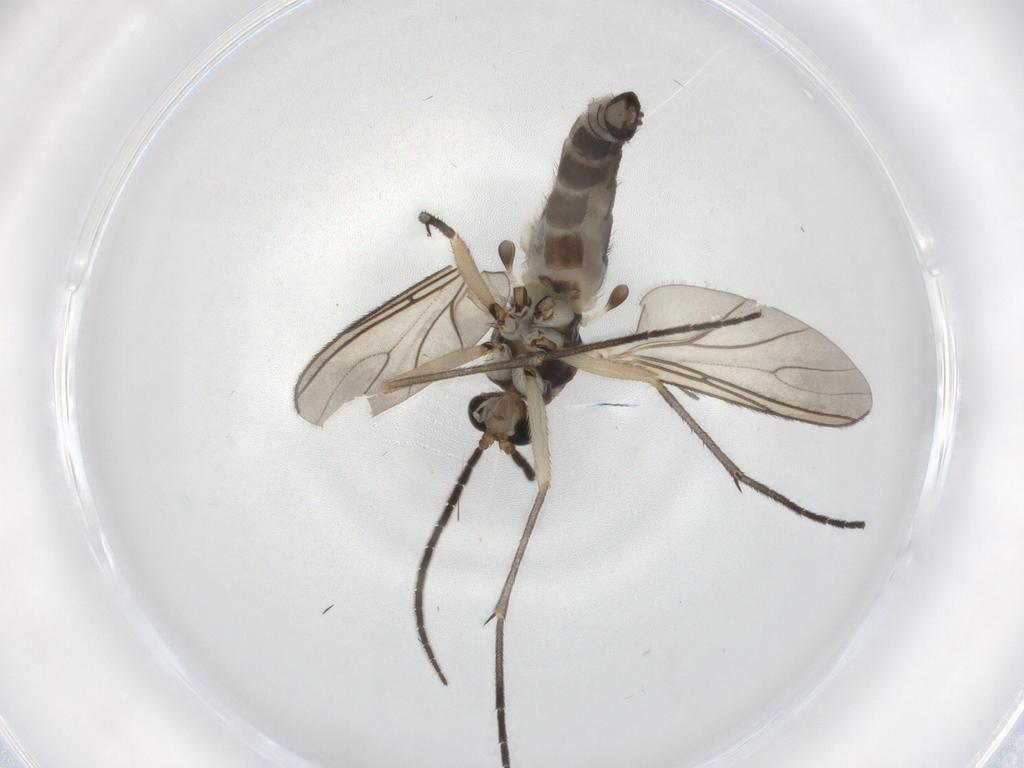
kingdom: Animalia
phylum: Arthropoda
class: Insecta
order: Diptera
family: Sciaridae
